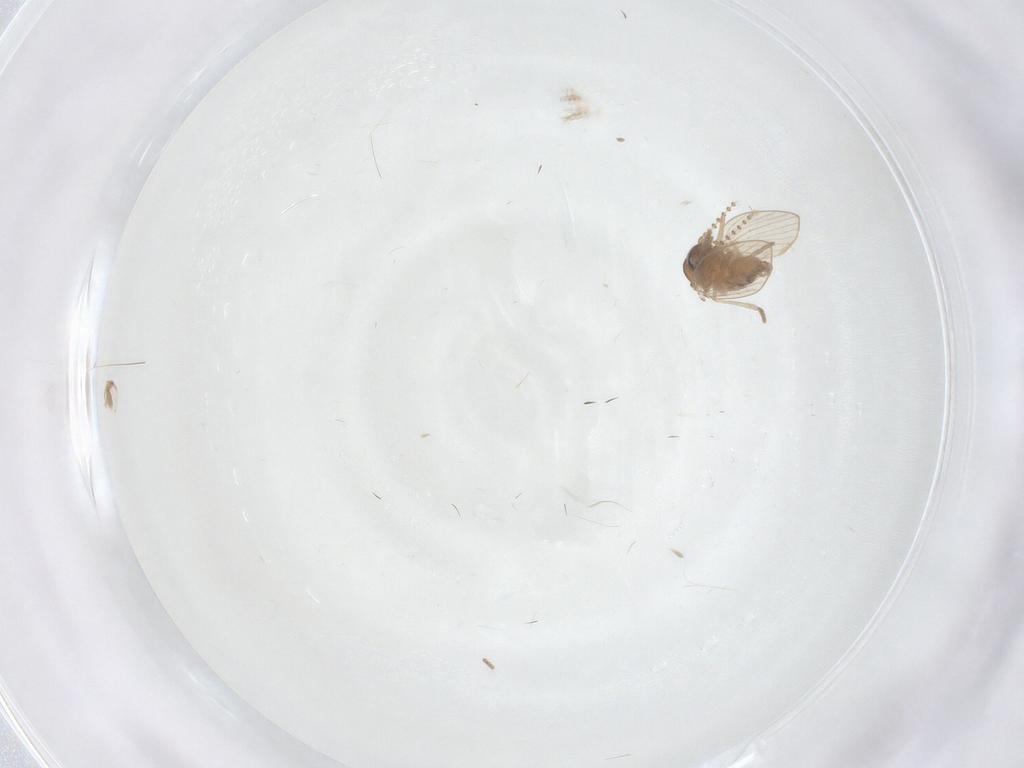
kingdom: Animalia
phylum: Arthropoda
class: Insecta
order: Diptera
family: Psychodidae
